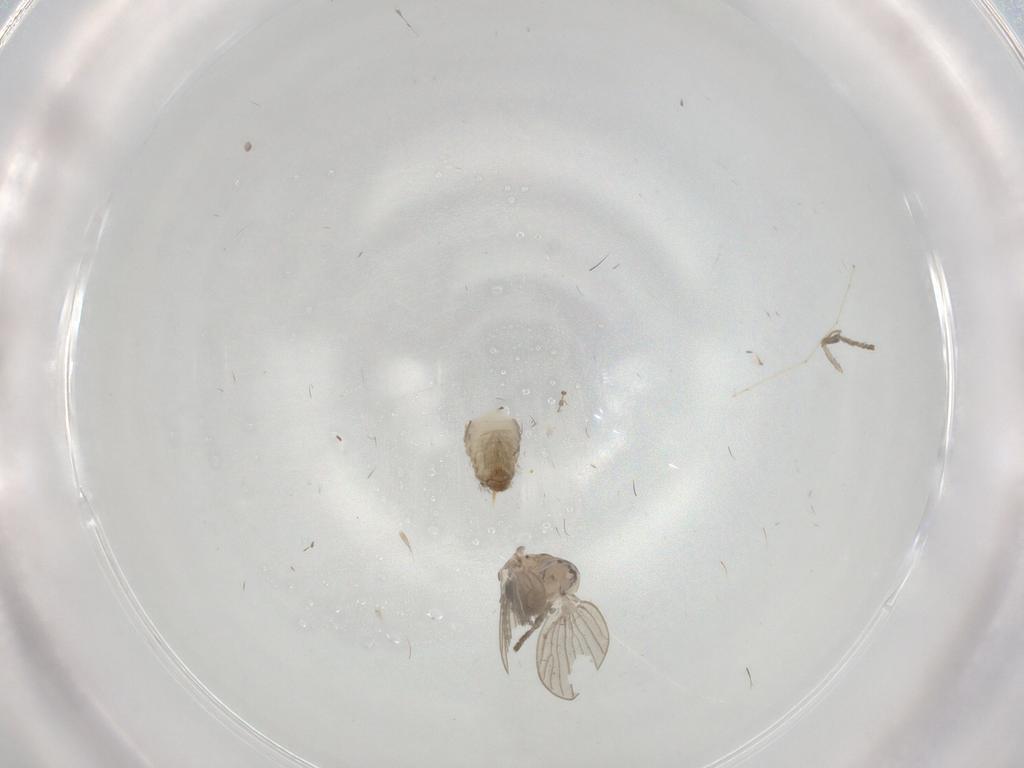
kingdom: Animalia
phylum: Arthropoda
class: Insecta
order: Diptera
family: Cecidomyiidae
